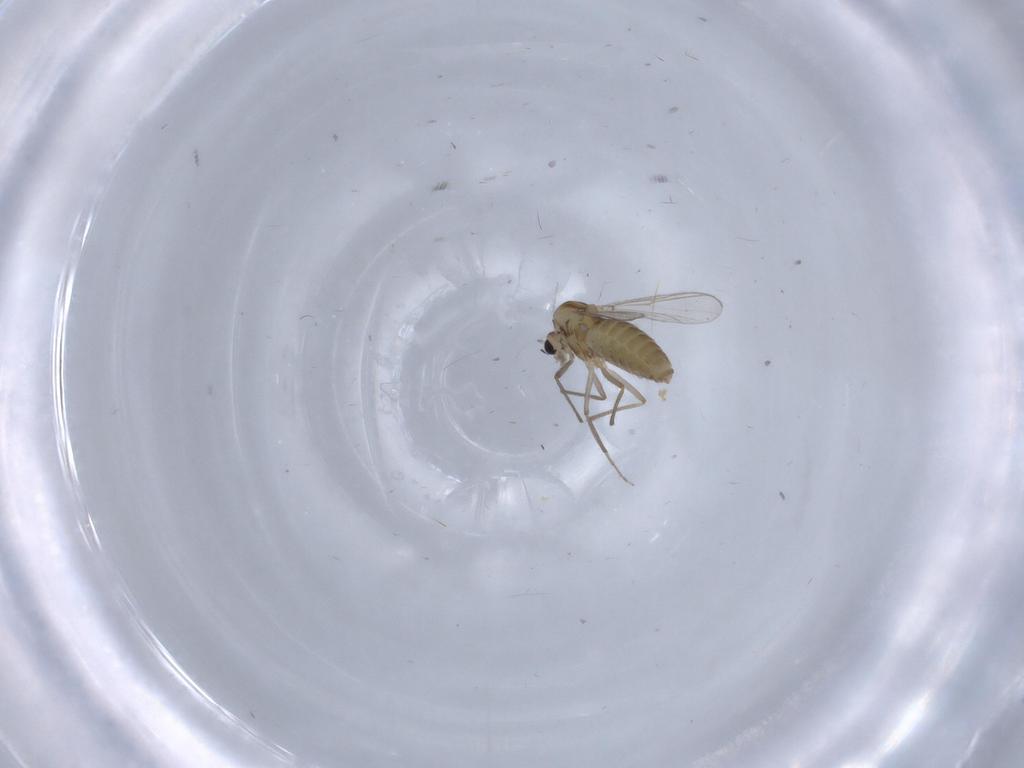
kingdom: Animalia
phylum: Arthropoda
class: Insecta
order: Diptera
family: Chironomidae
